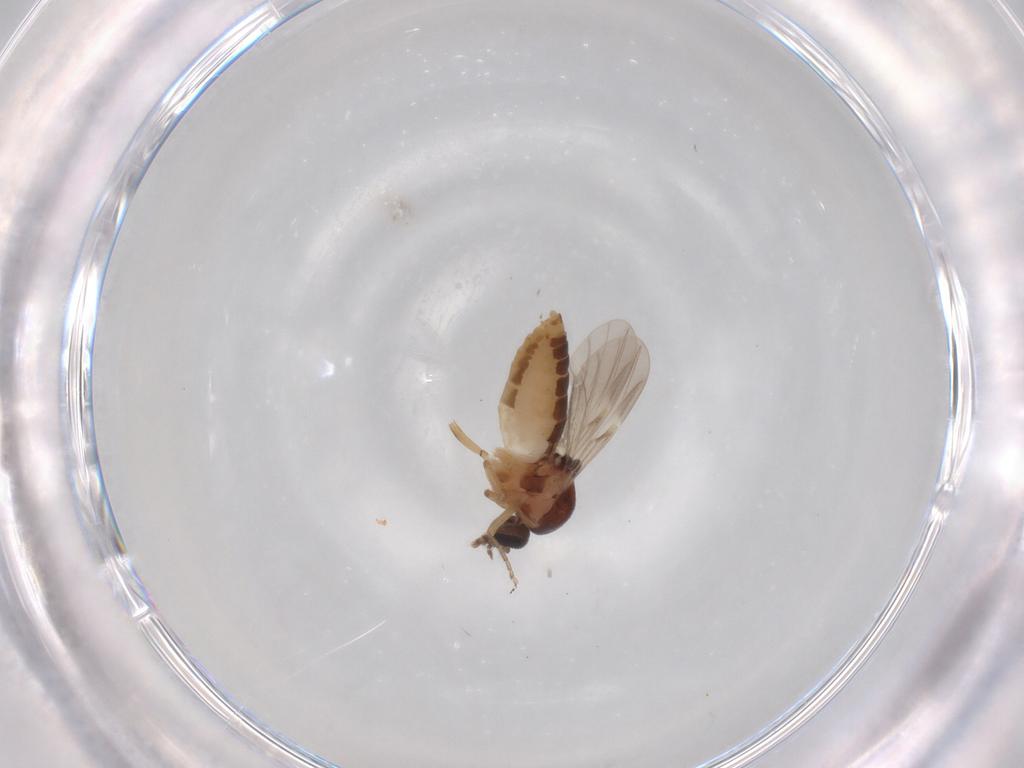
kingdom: Animalia
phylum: Arthropoda
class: Insecta
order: Diptera
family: Ceratopogonidae
